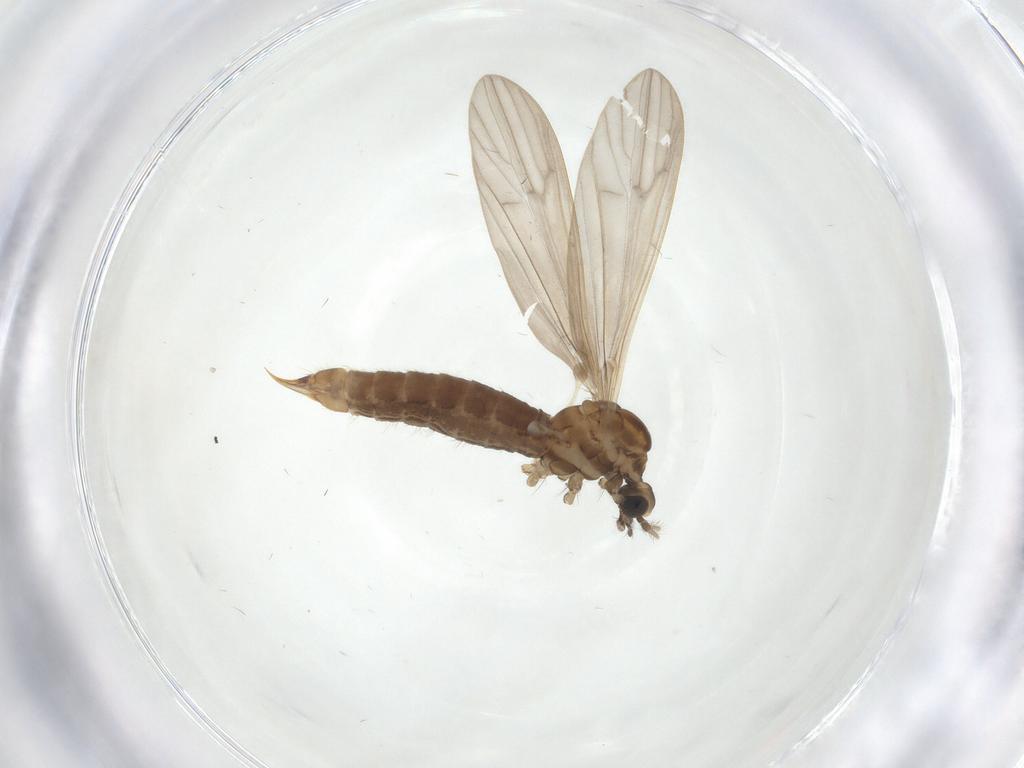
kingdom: Animalia
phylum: Arthropoda
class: Insecta
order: Diptera
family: Limoniidae
